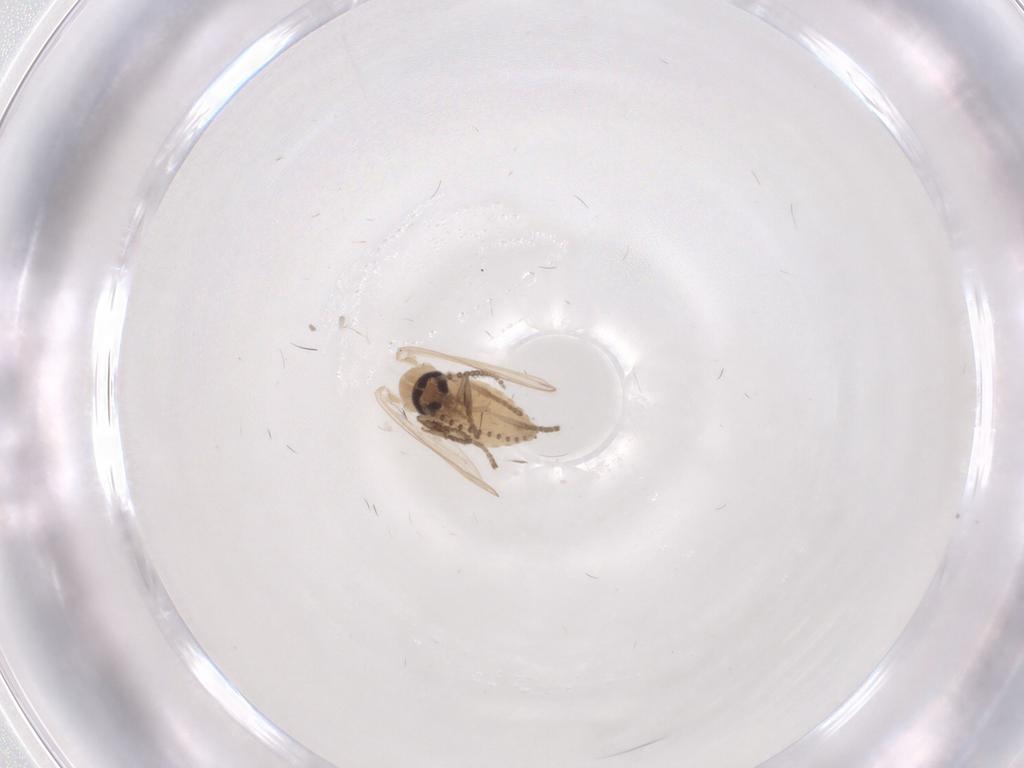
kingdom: Animalia
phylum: Arthropoda
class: Insecta
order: Diptera
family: Psychodidae
